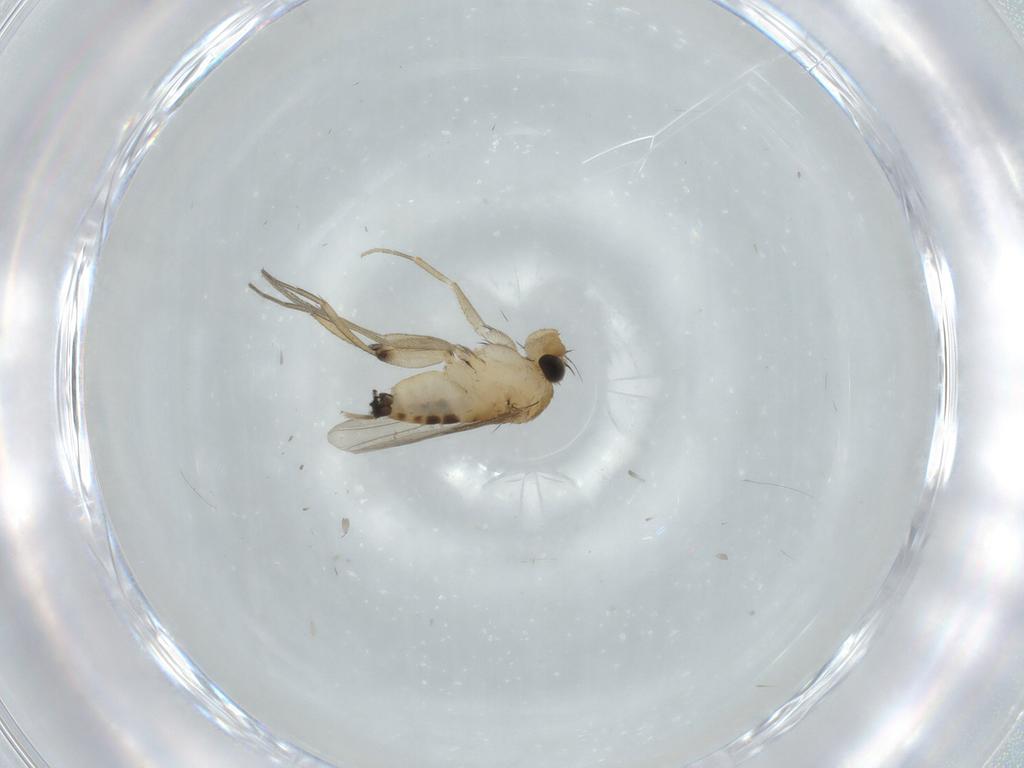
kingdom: Animalia
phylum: Arthropoda
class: Insecta
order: Diptera
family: Phoridae
